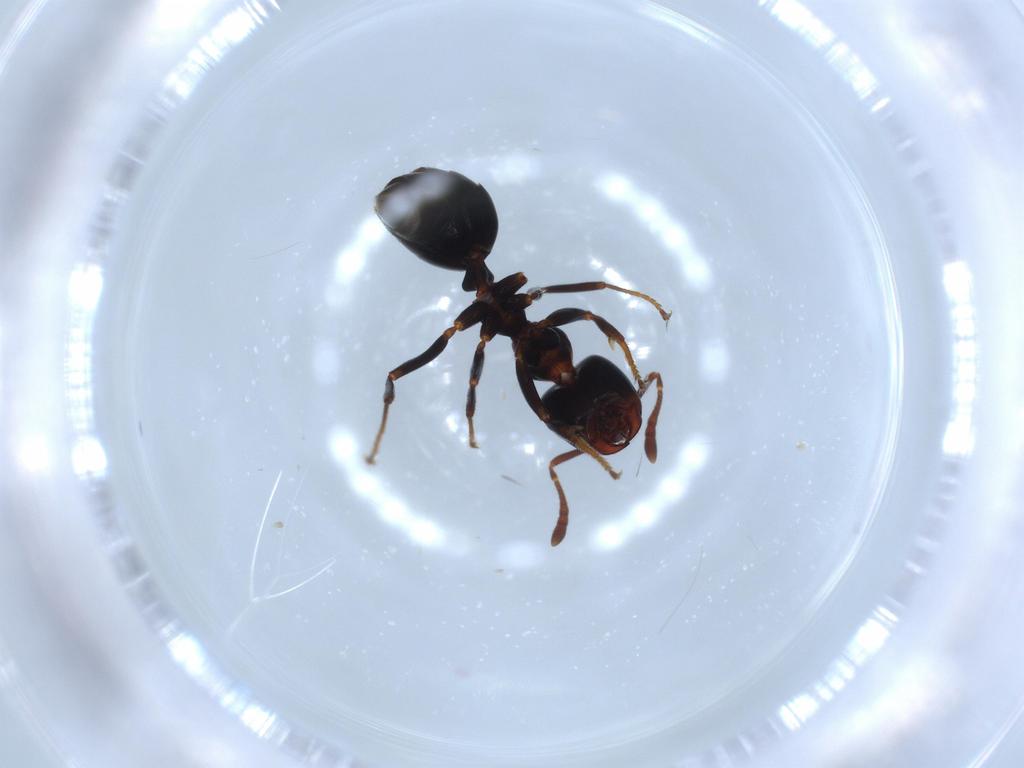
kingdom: Animalia
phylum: Arthropoda
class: Insecta
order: Hymenoptera
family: Formicidae
